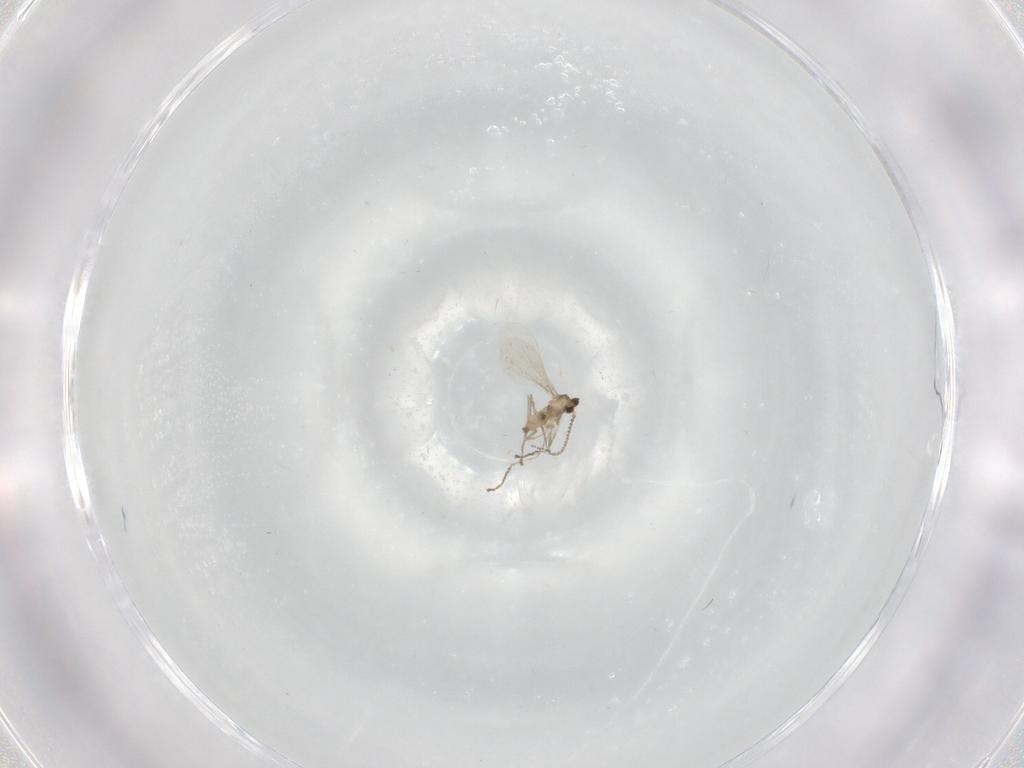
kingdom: Animalia
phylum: Arthropoda
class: Insecta
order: Diptera
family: Cecidomyiidae
